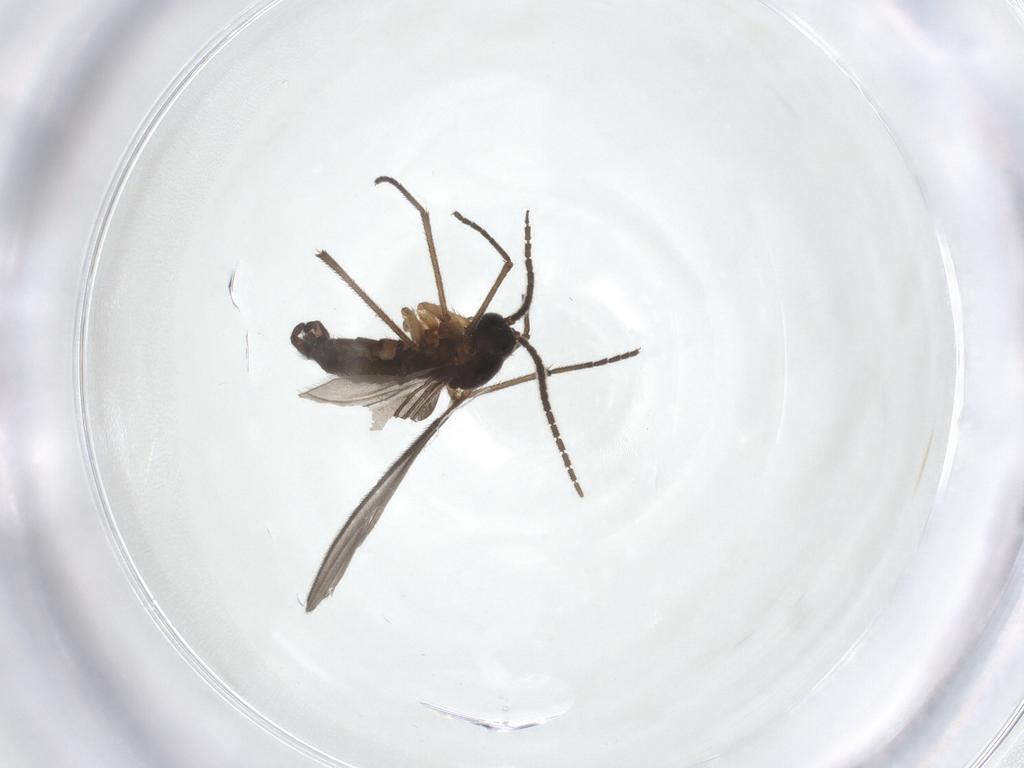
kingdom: Animalia
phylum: Arthropoda
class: Insecta
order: Diptera
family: Sciaridae
